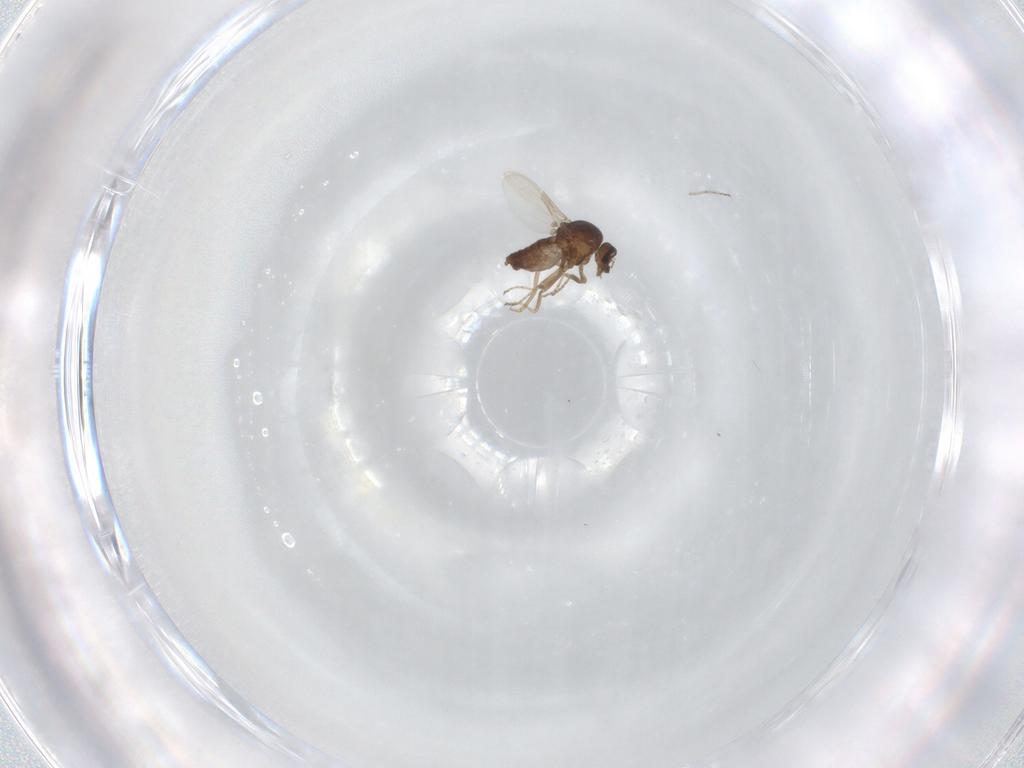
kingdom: Animalia
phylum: Arthropoda
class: Insecta
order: Diptera
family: Ceratopogonidae
